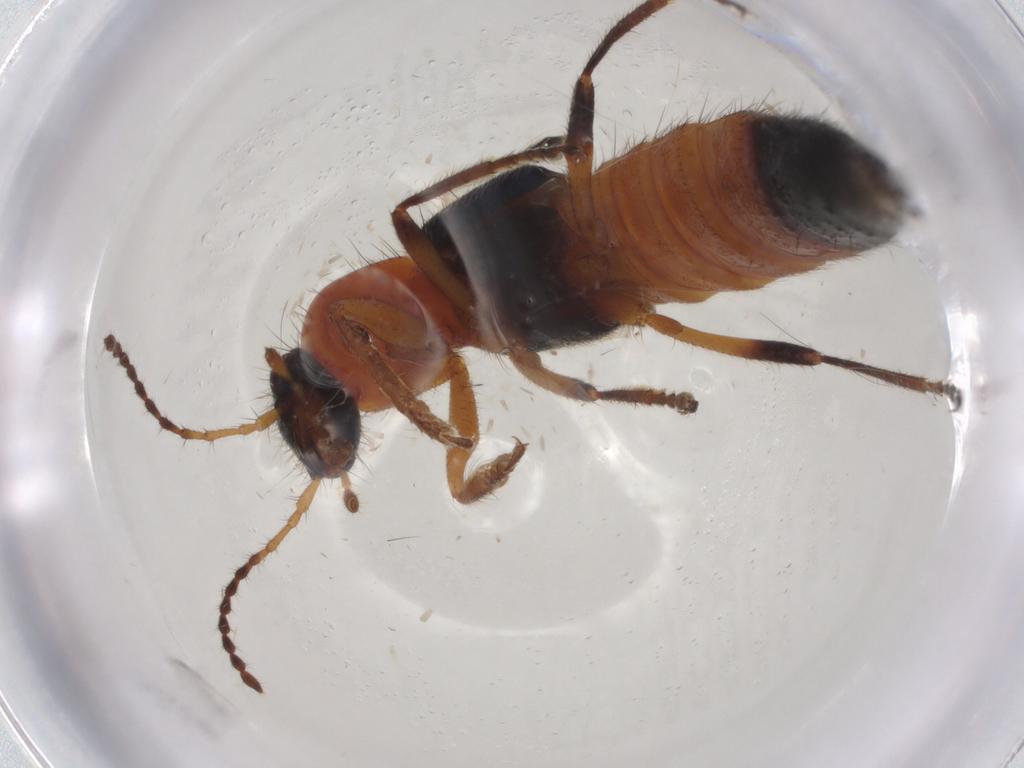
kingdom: Animalia
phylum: Arthropoda
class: Insecta
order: Coleoptera
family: Staphylinidae
